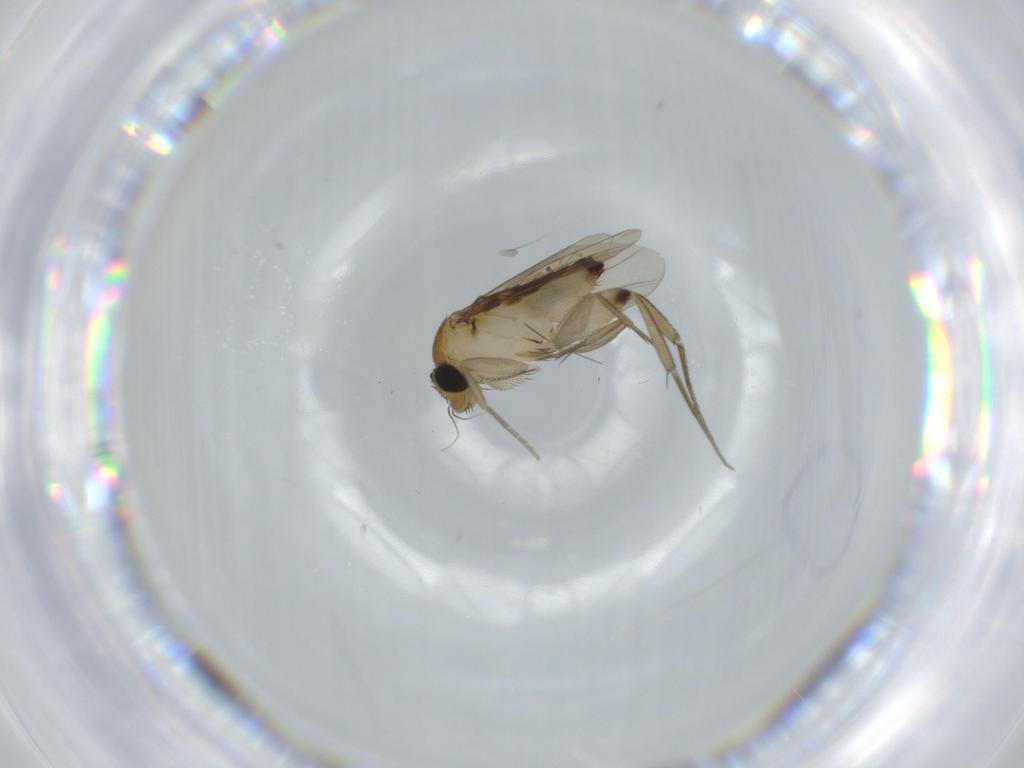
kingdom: Animalia
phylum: Arthropoda
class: Insecta
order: Diptera
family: Phoridae
